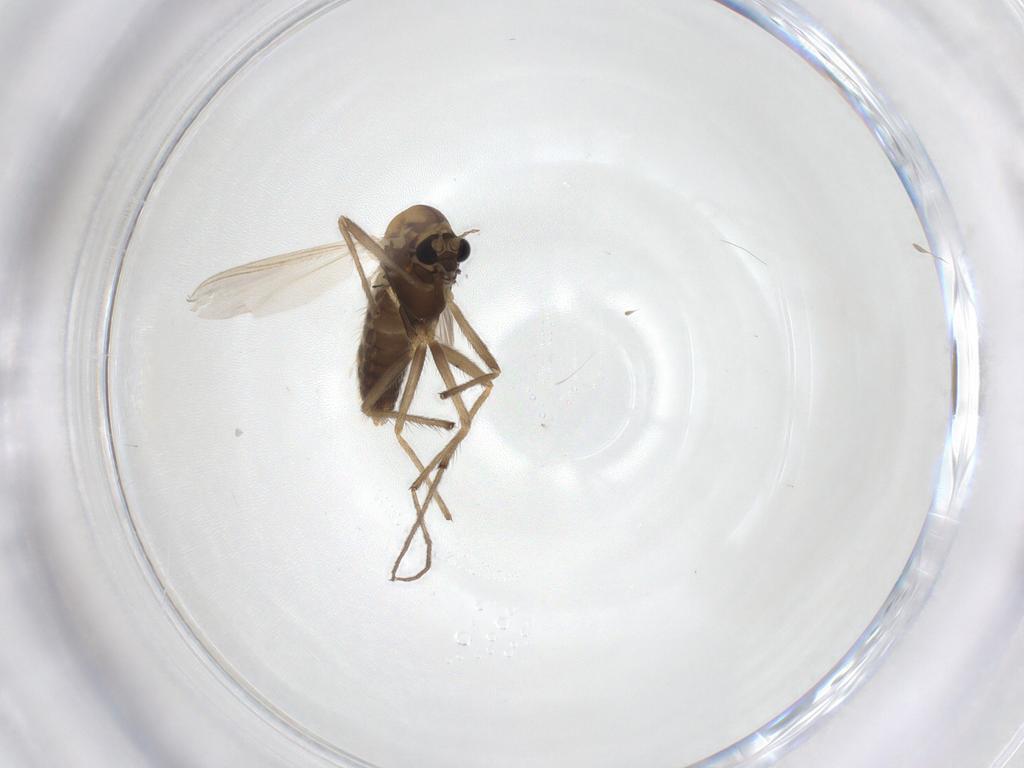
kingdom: Animalia
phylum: Arthropoda
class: Insecta
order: Diptera
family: Chironomidae
